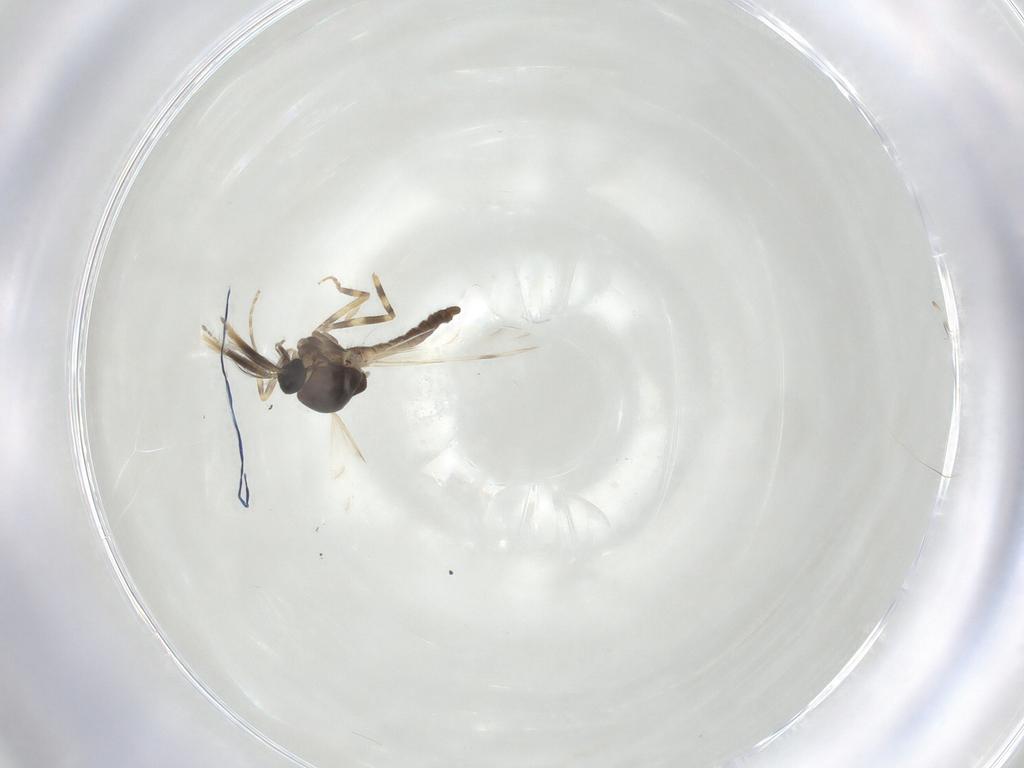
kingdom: Animalia
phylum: Arthropoda
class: Insecta
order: Diptera
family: Ceratopogonidae
